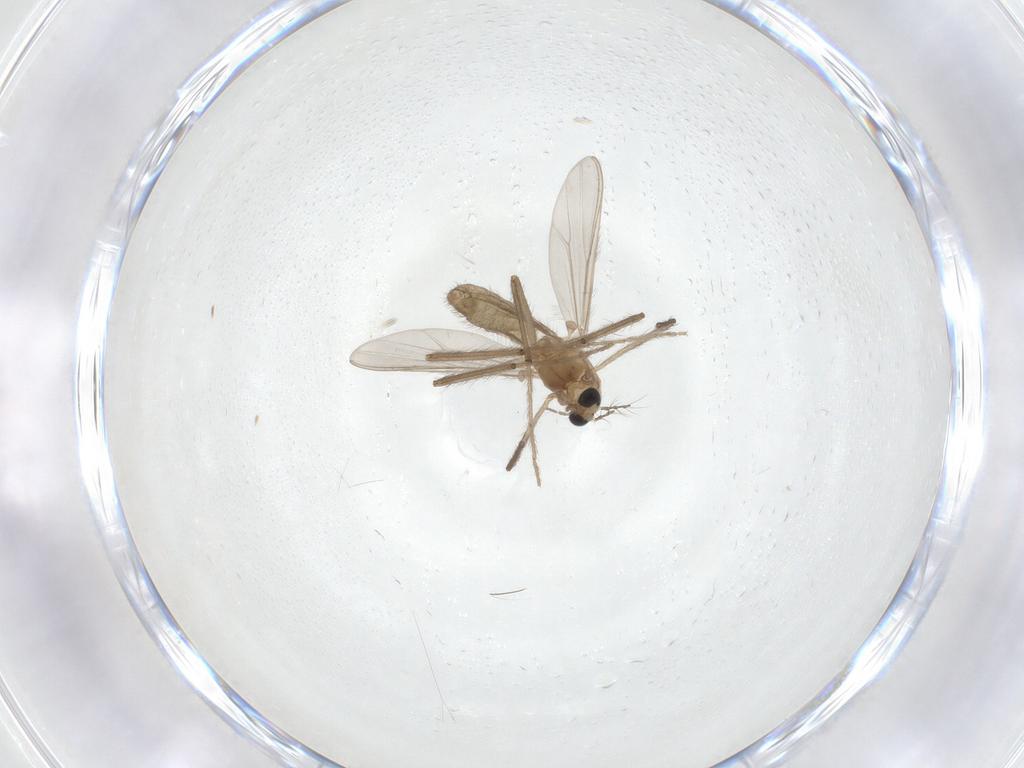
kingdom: Animalia
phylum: Arthropoda
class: Insecta
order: Diptera
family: Chironomidae
